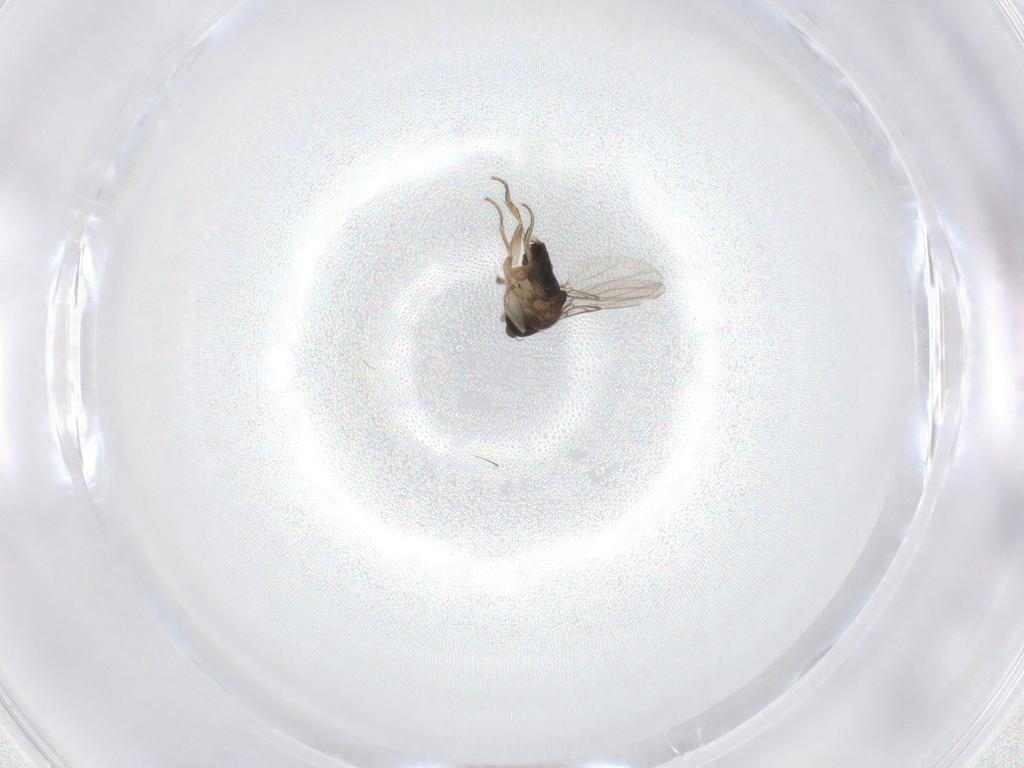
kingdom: Animalia
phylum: Arthropoda
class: Insecta
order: Diptera
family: Phoridae
